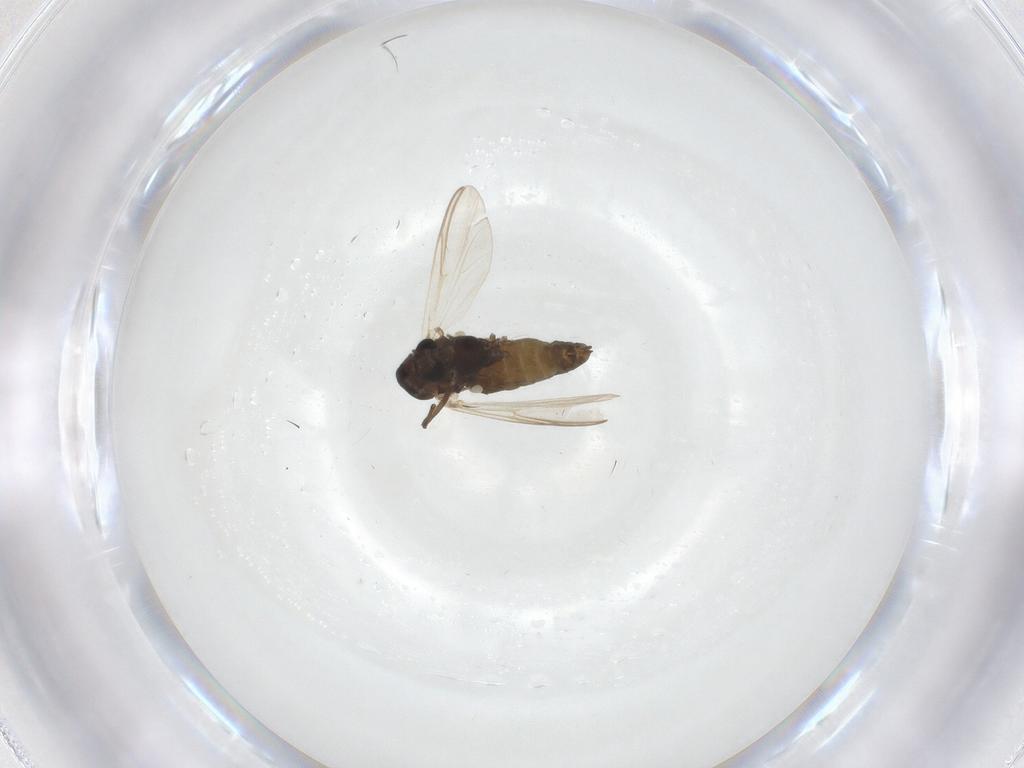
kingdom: Animalia
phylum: Arthropoda
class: Insecta
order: Diptera
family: Chironomidae
